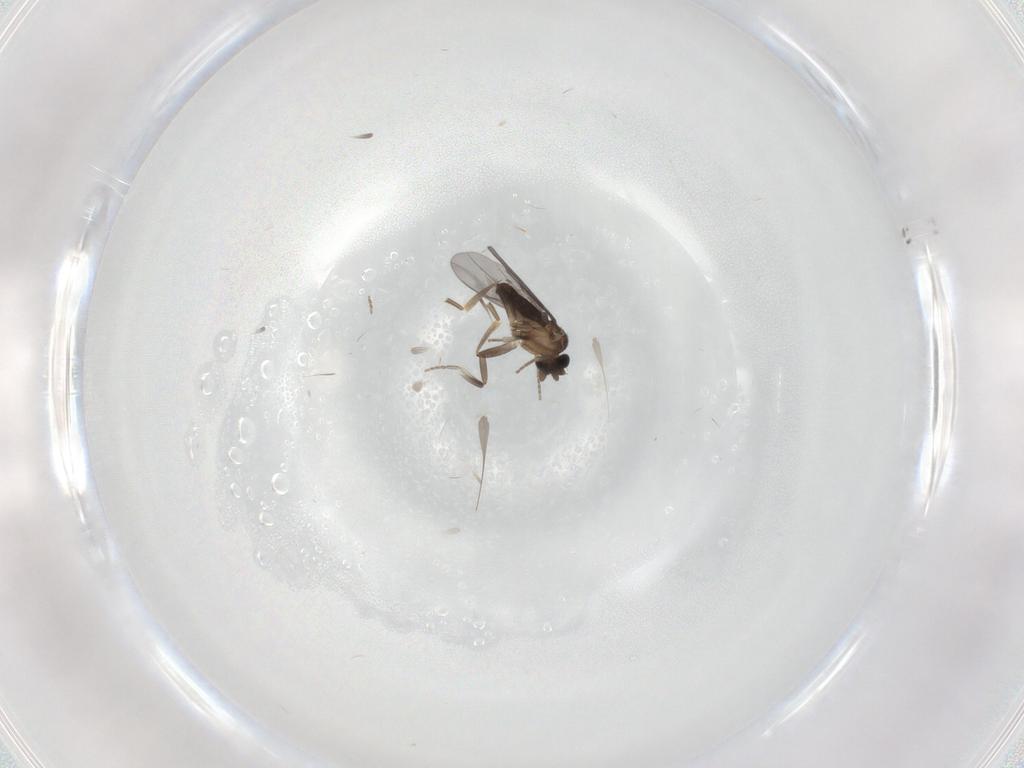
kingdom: Animalia
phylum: Arthropoda
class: Insecta
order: Diptera
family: Cecidomyiidae
